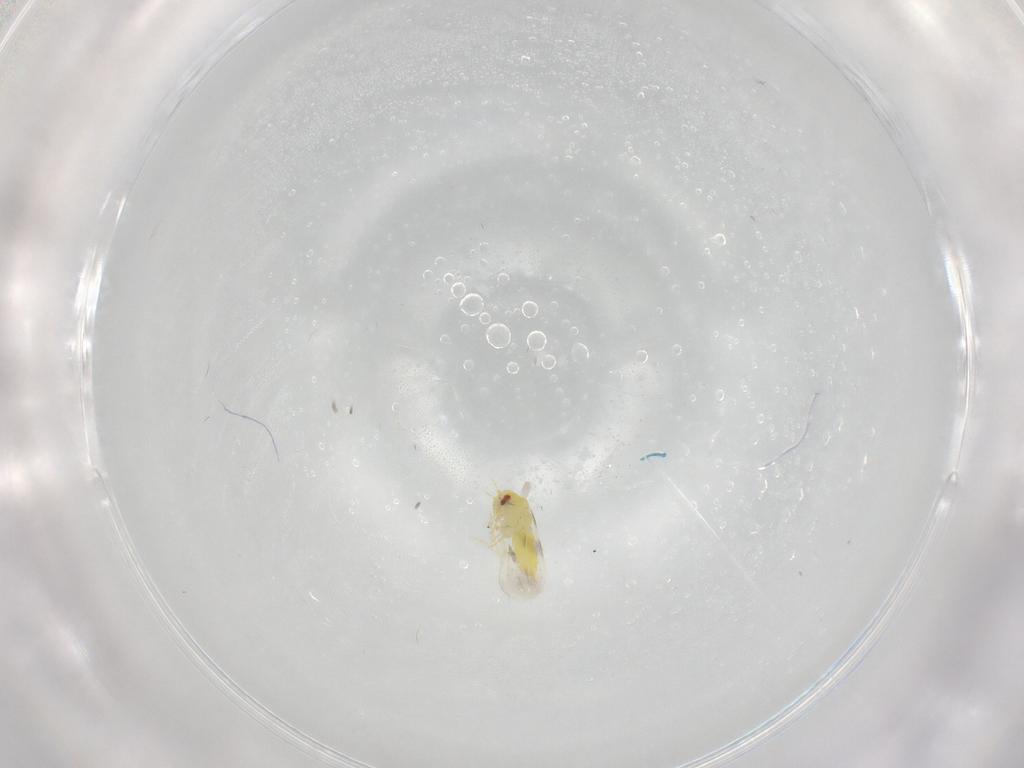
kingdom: Animalia
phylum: Arthropoda
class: Insecta
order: Hemiptera
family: Aleyrodidae
